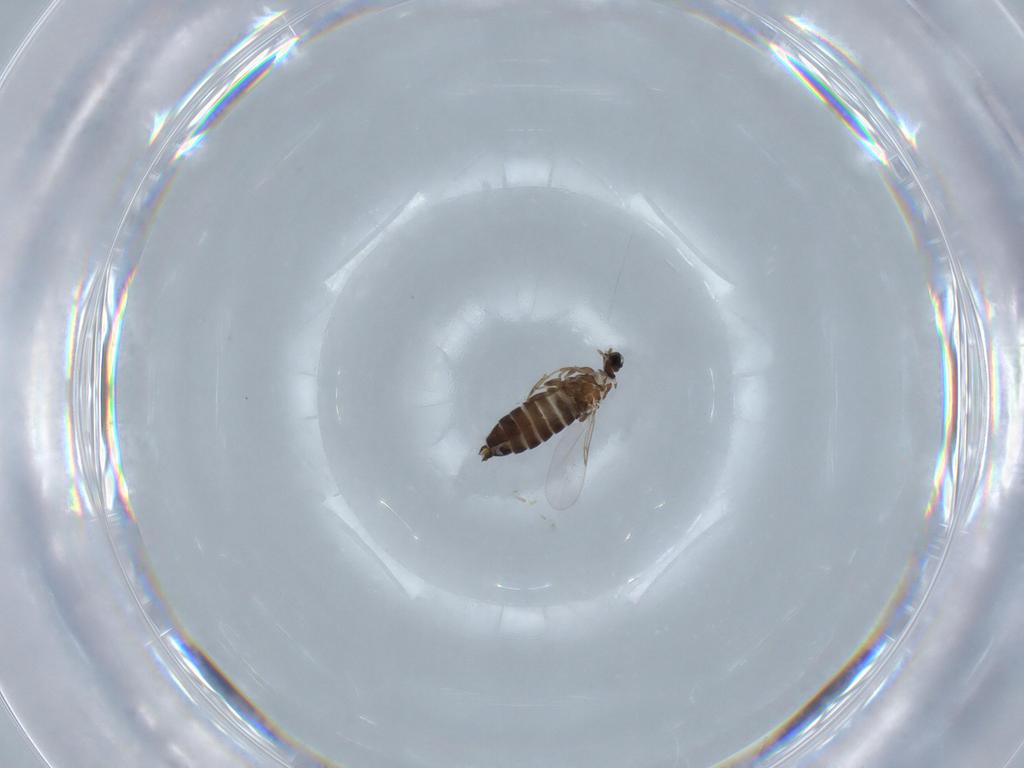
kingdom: Animalia
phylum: Arthropoda
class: Insecta
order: Diptera
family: Scatopsidae
